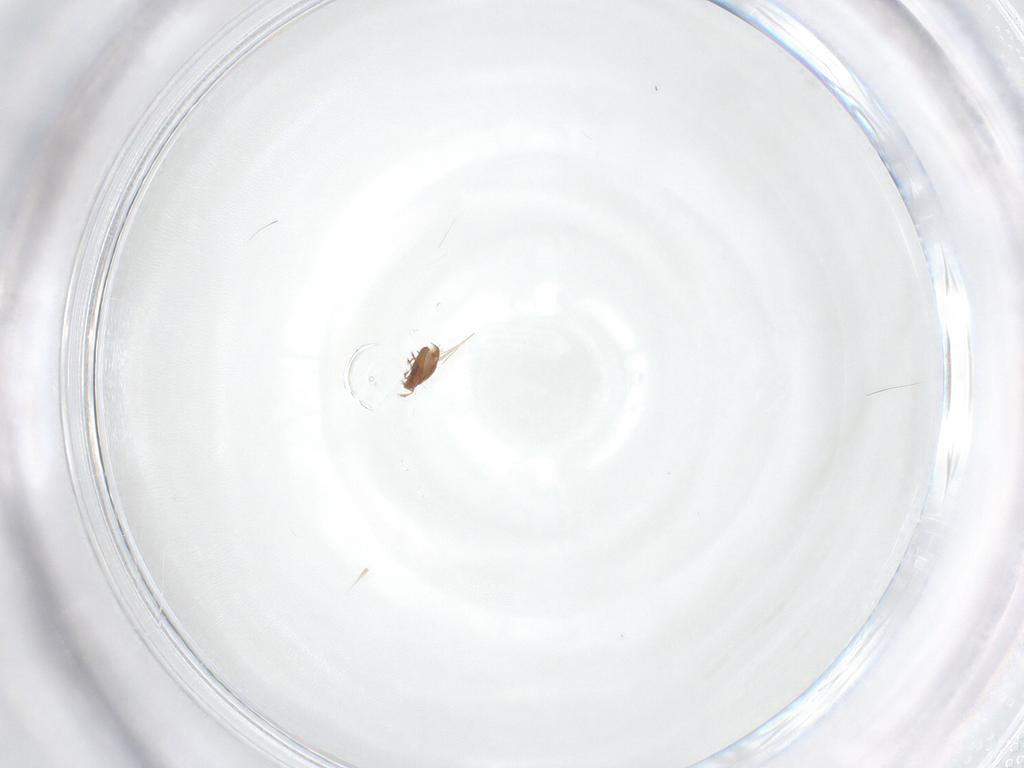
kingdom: Animalia
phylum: Arthropoda
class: Arachnida
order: Sarcoptiformes
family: Oribatulidae
